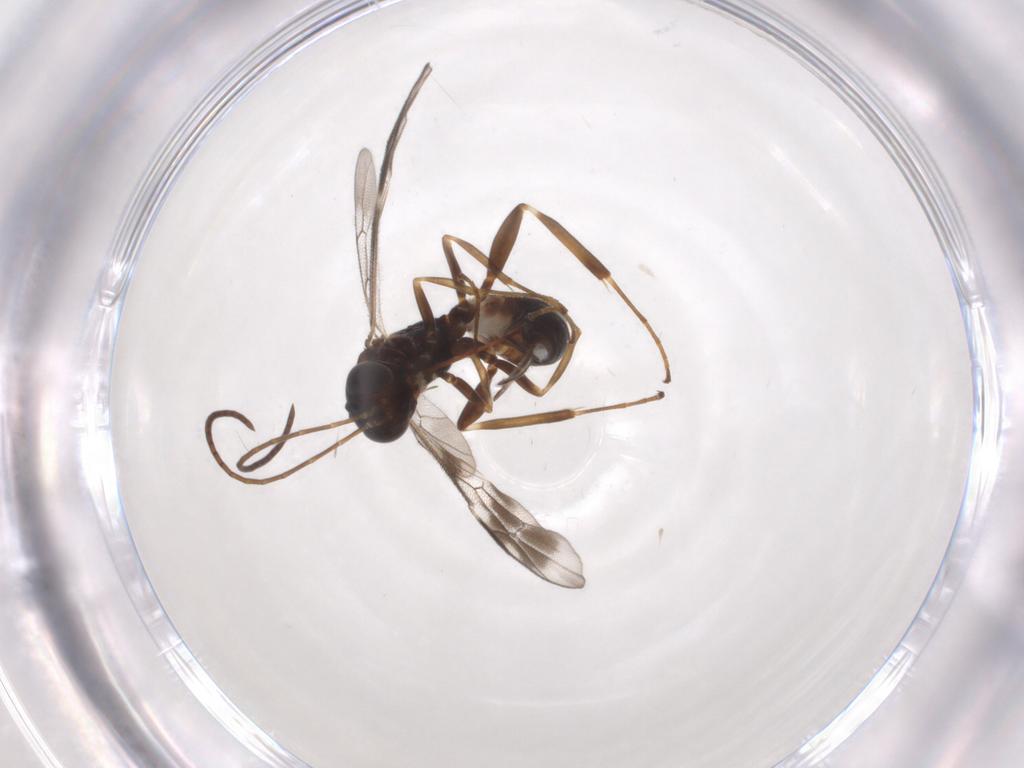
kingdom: Animalia
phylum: Arthropoda
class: Insecta
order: Hymenoptera
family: Ichneumonidae
